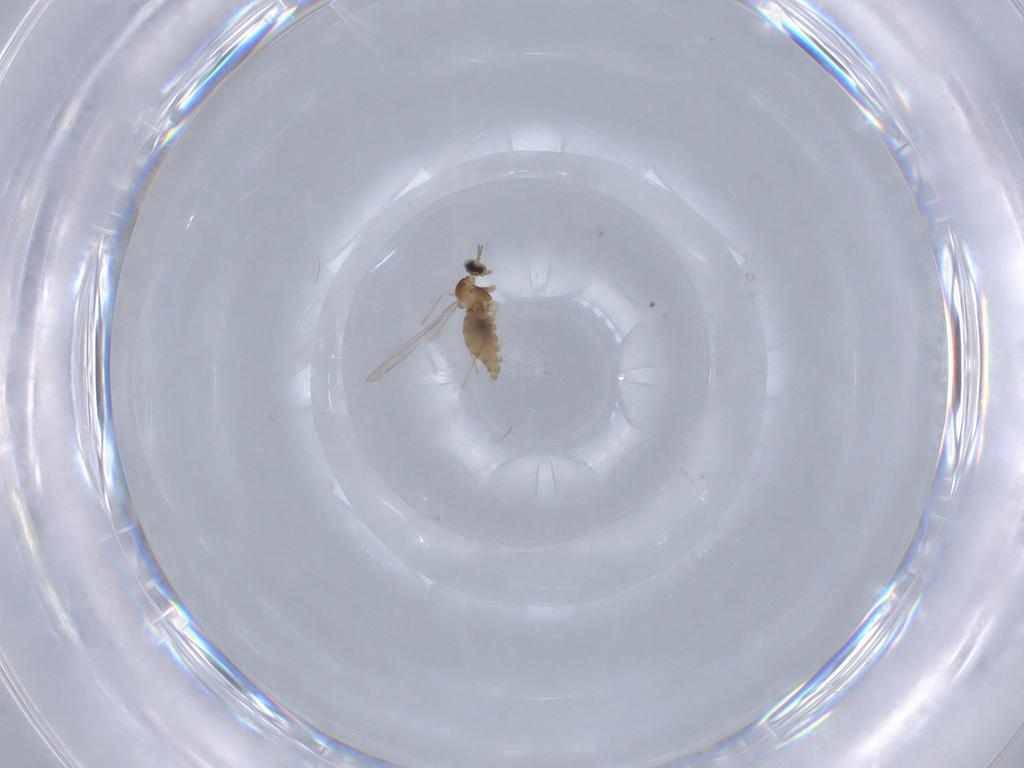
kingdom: Animalia
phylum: Arthropoda
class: Insecta
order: Diptera
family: Cecidomyiidae
